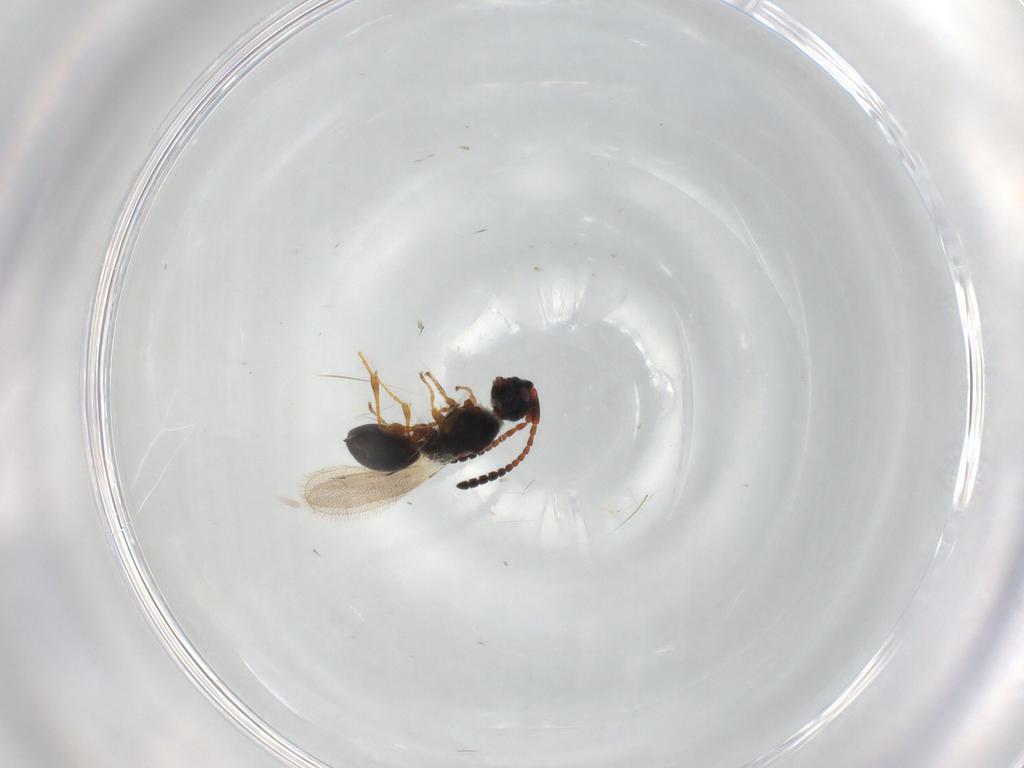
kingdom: Animalia
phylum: Arthropoda
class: Insecta
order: Hymenoptera
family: Diapriidae
